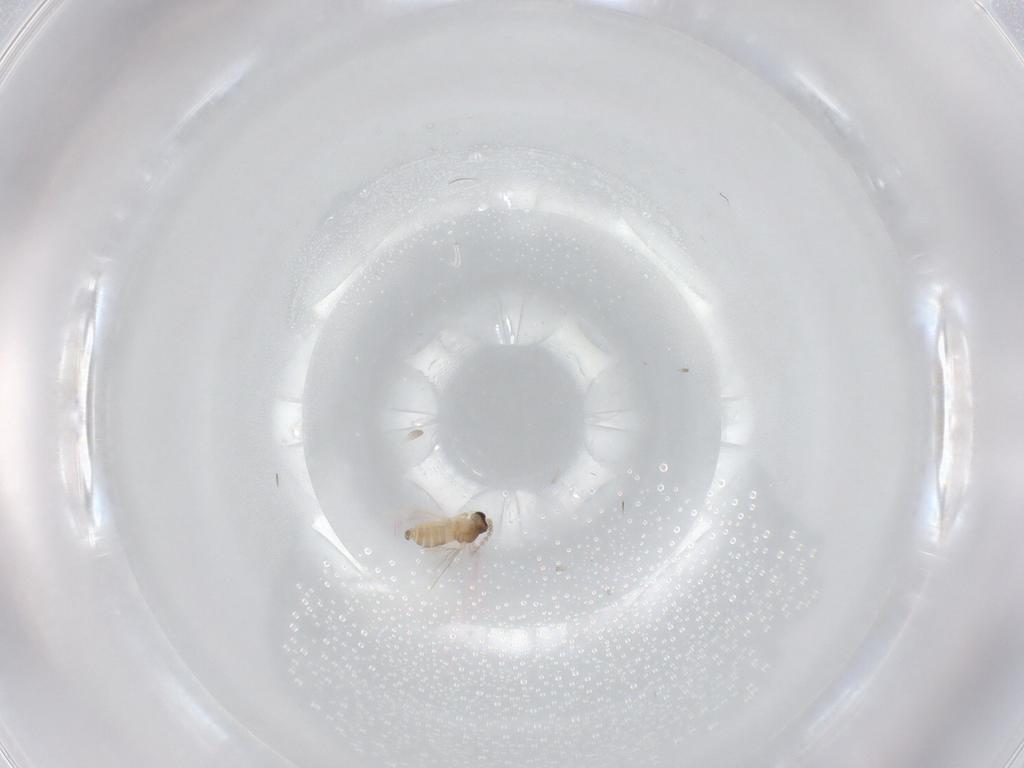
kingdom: Animalia
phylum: Arthropoda
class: Insecta
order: Diptera
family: Cecidomyiidae
